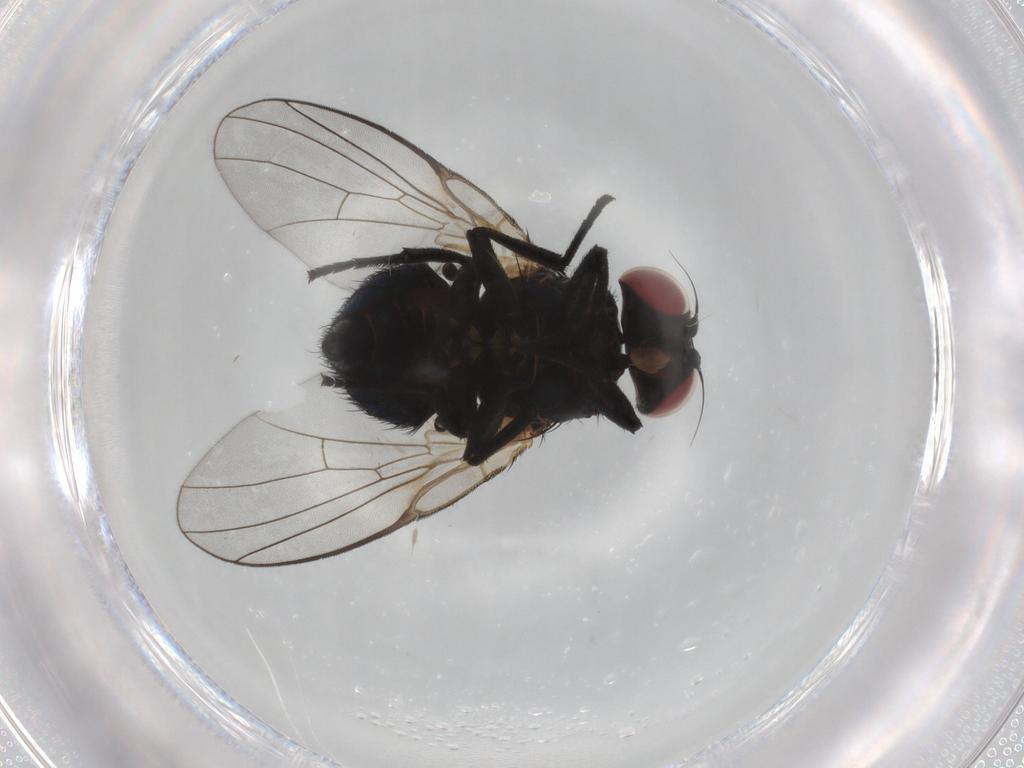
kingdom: Animalia
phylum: Arthropoda
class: Insecta
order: Diptera
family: Agromyzidae
